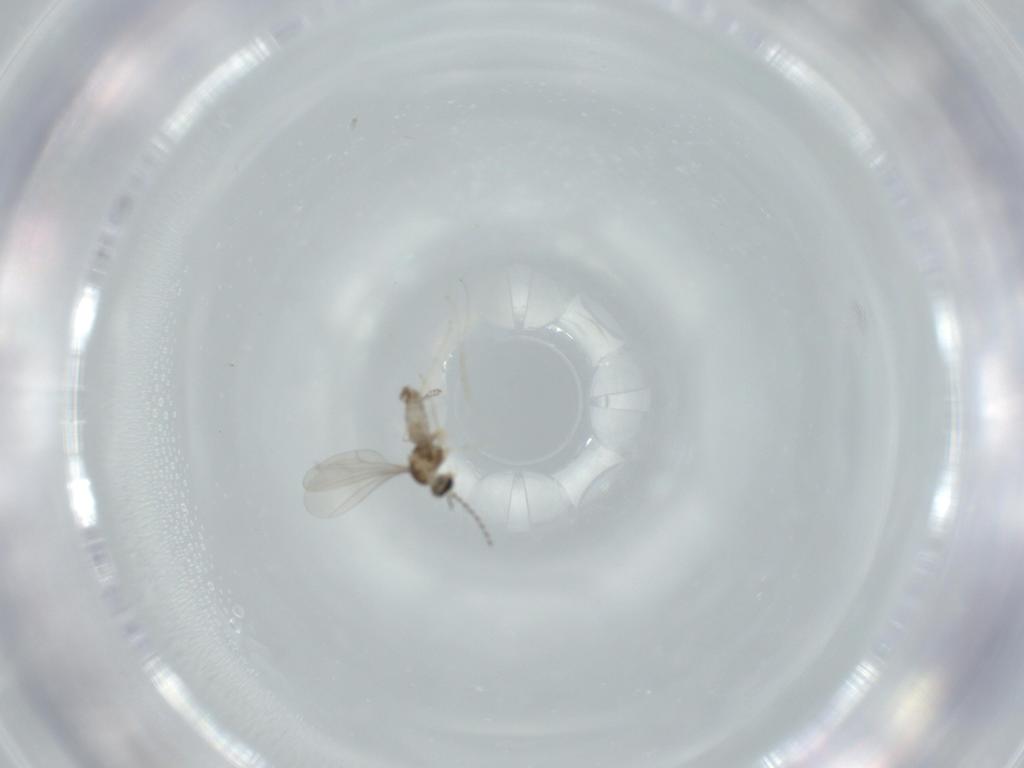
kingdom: Animalia
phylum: Arthropoda
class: Insecta
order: Diptera
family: Cecidomyiidae
